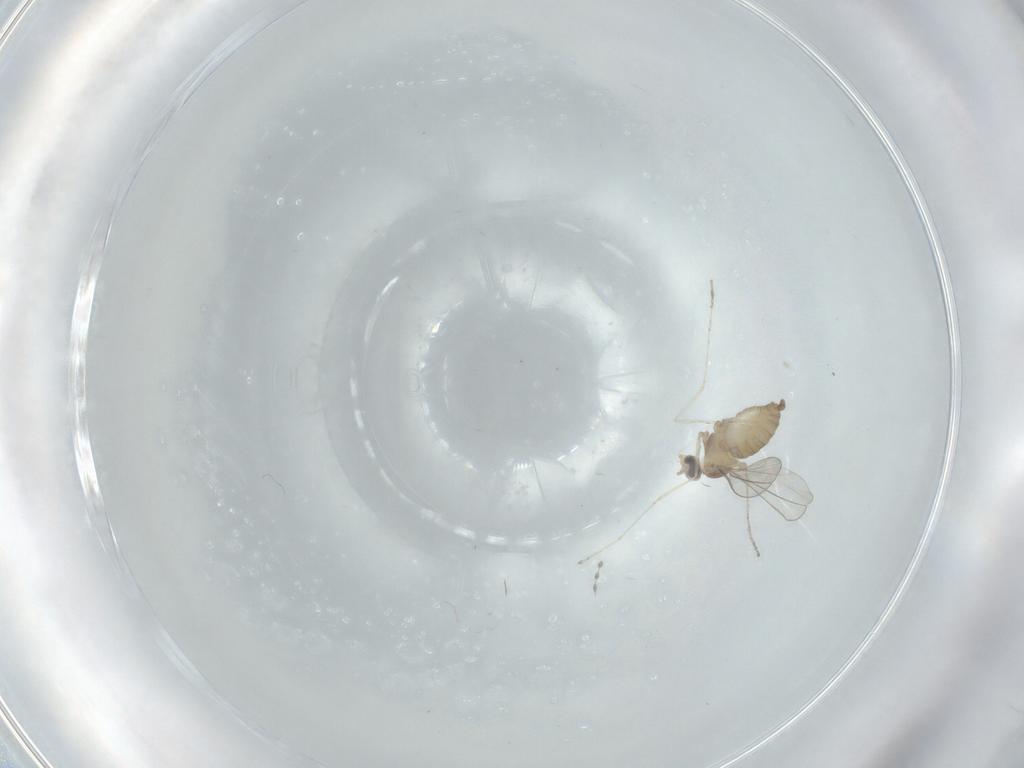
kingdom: Animalia
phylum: Arthropoda
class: Insecta
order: Diptera
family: Cecidomyiidae
